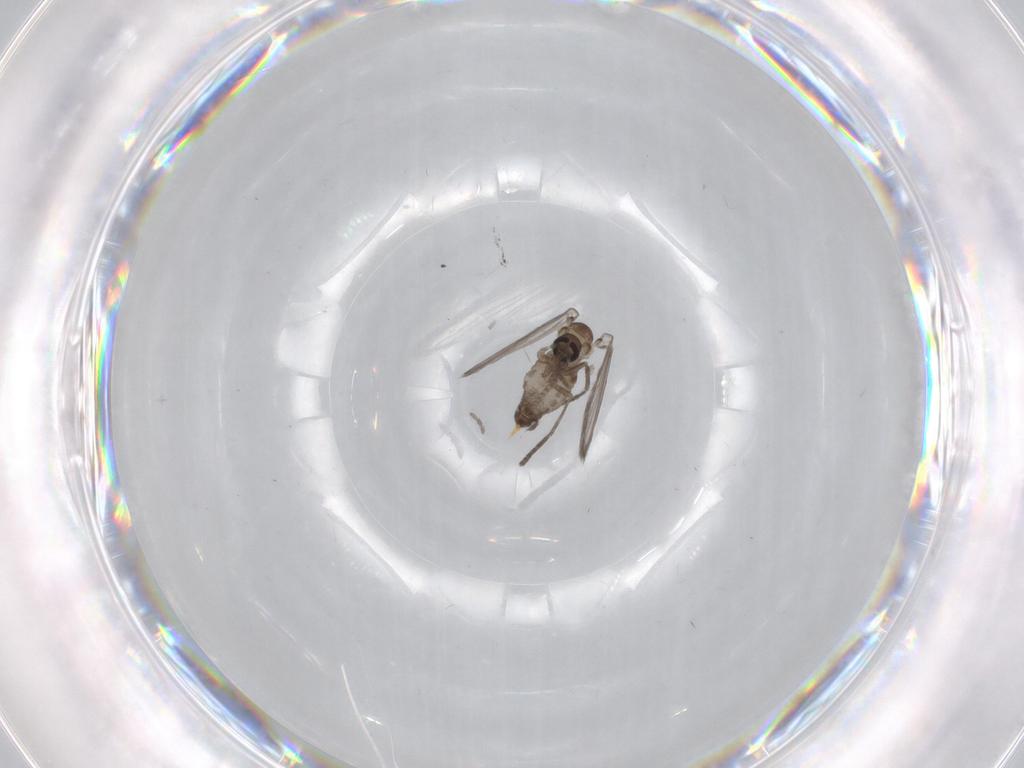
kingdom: Animalia
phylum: Arthropoda
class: Insecta
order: Diptera
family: Psychodidae
